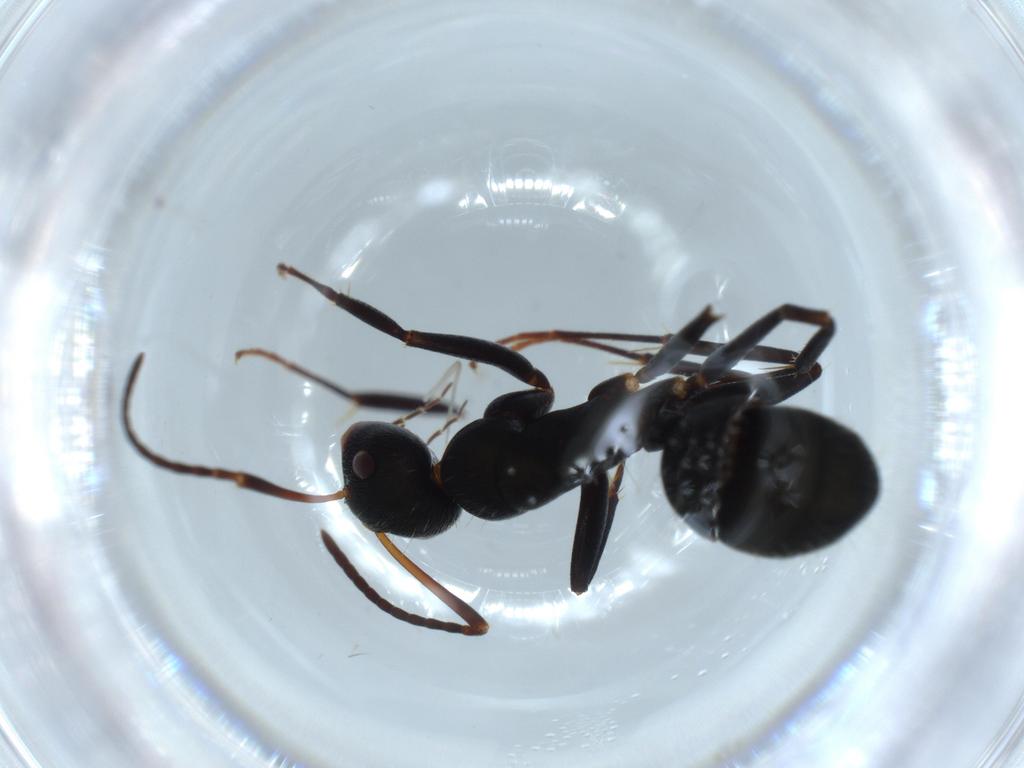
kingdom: Animalia
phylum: Arthropoda
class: Insecta
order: Hymenoptera
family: Formicidae
